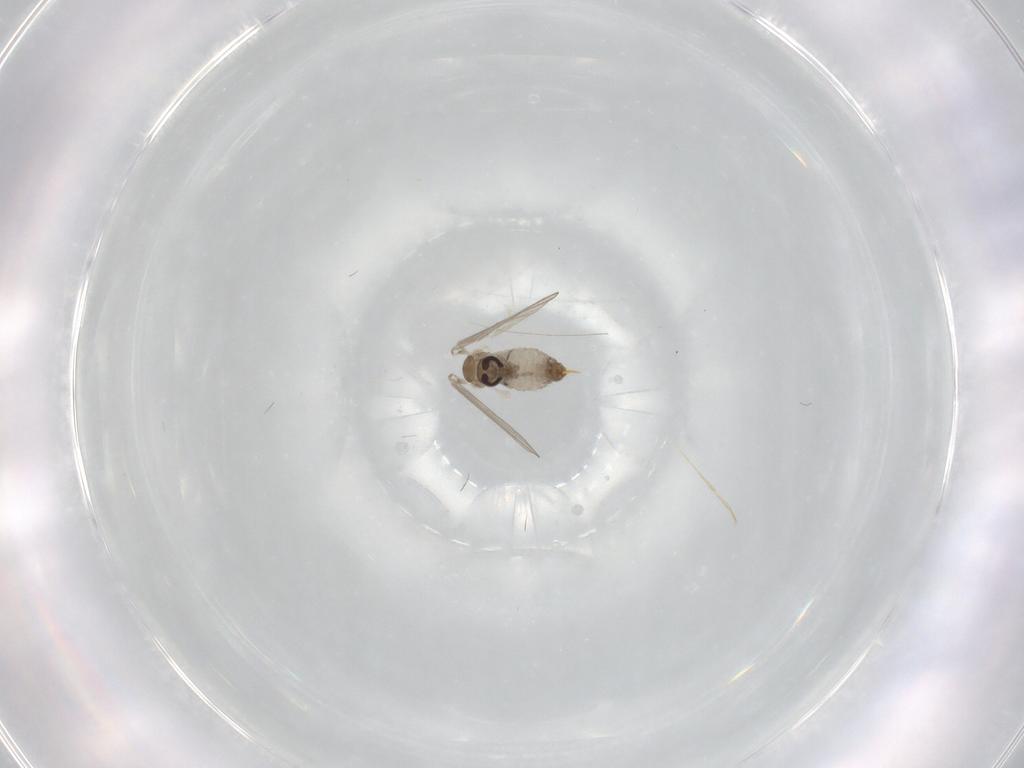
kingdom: Animalia
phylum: Arthropoda
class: Insecta
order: Diptera
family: Psychodidae
